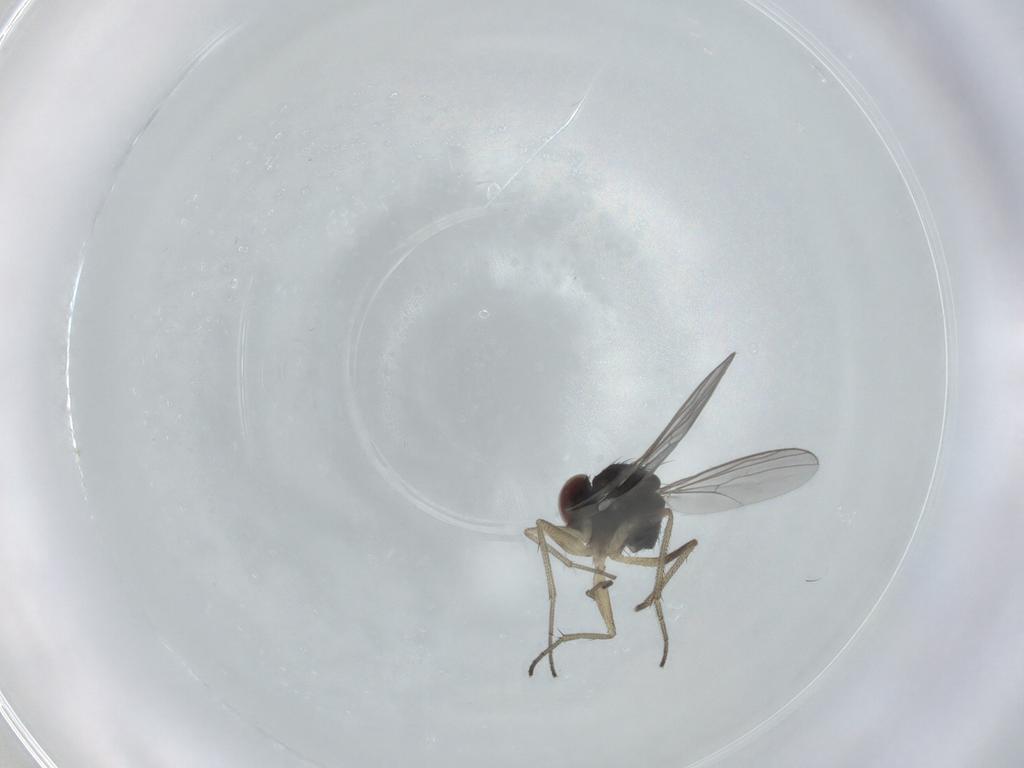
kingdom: Animalia
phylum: Arthropoda
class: Insecta
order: Diptera
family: Dolichopodidae
